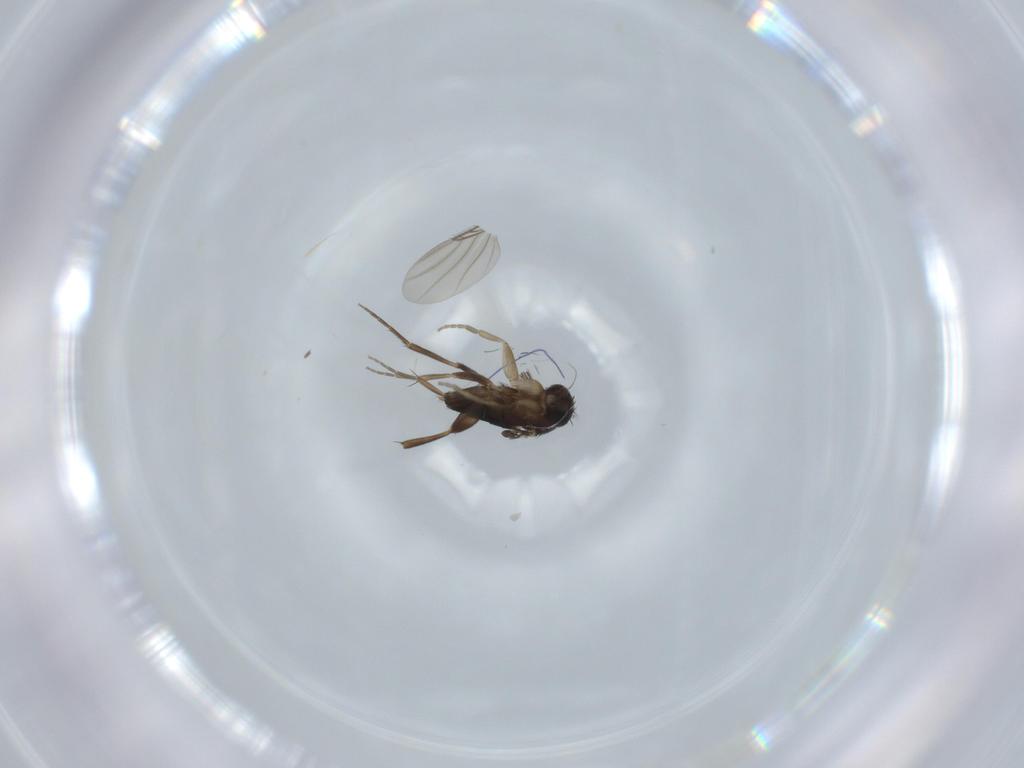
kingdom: Animalia
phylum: Arthropoda
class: Insecta
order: Diptera
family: Phoridae
